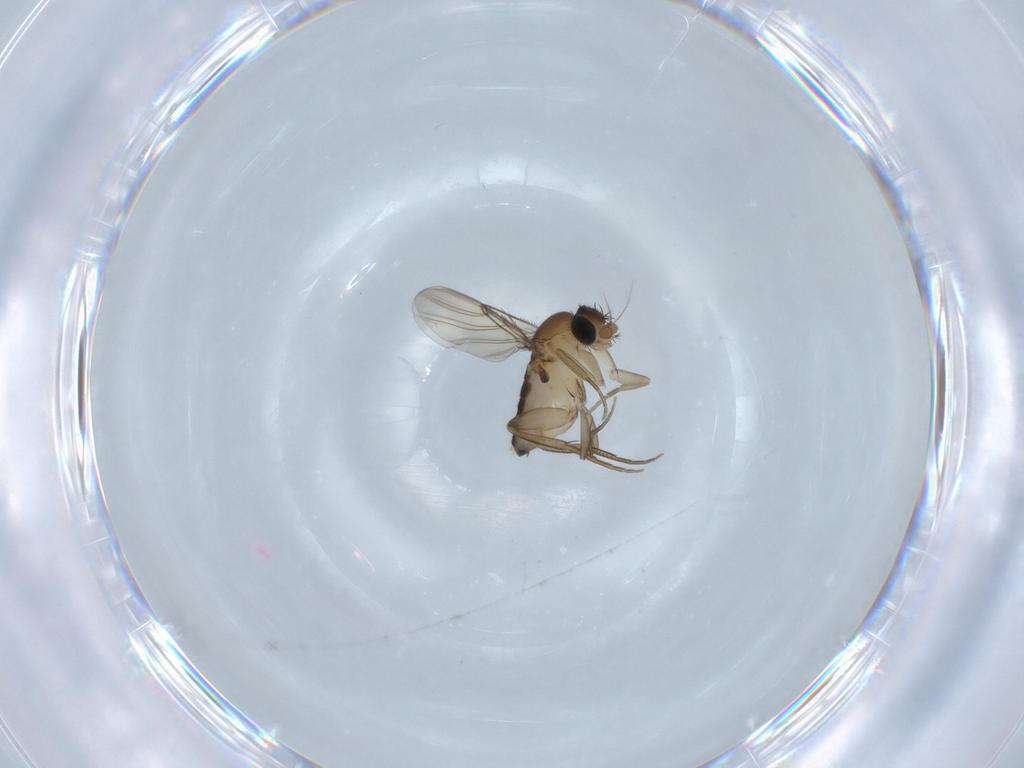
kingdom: Animalia
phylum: Arthropoda
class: Insecta
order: Diptera
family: Phoridae
